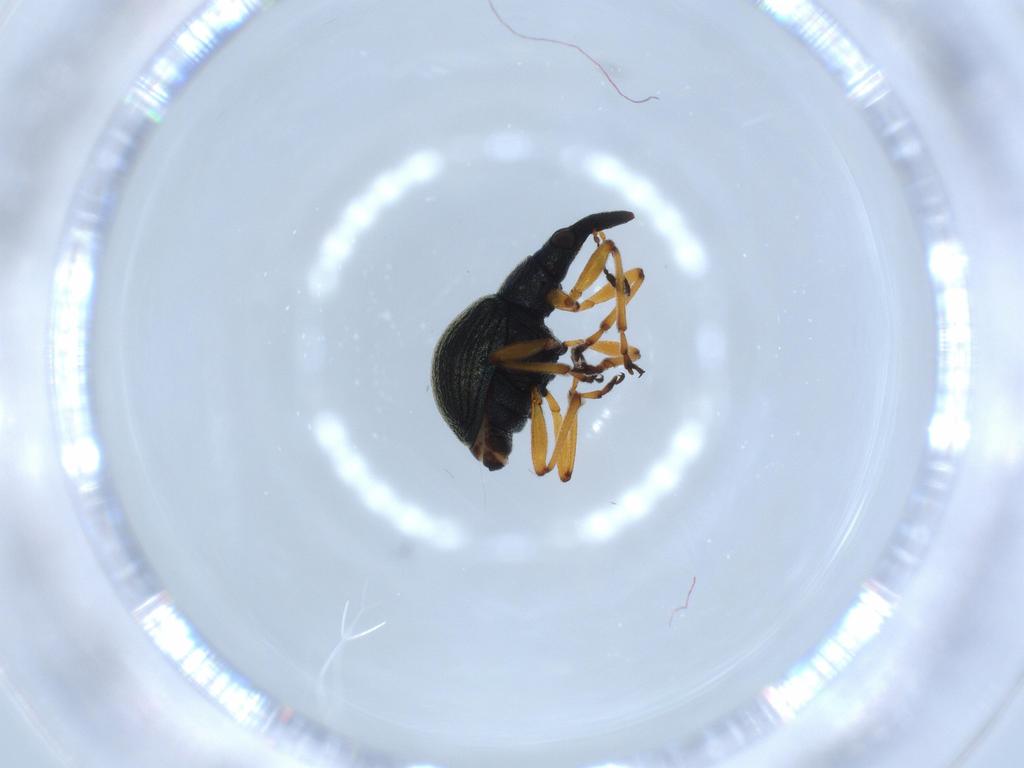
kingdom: Animalia
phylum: Arthropoda
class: Insecta
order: Coleoptera
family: Brentidae
